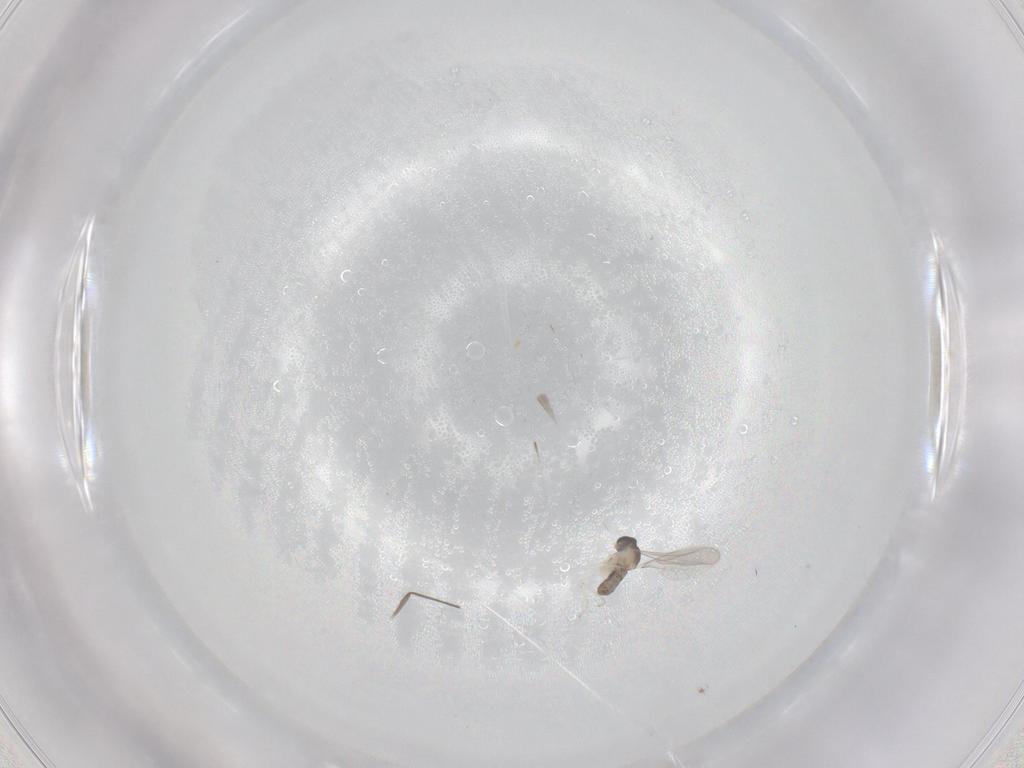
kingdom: Animalia
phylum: Arthropoda
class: Insecta
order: Diptera
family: Chironomidae
